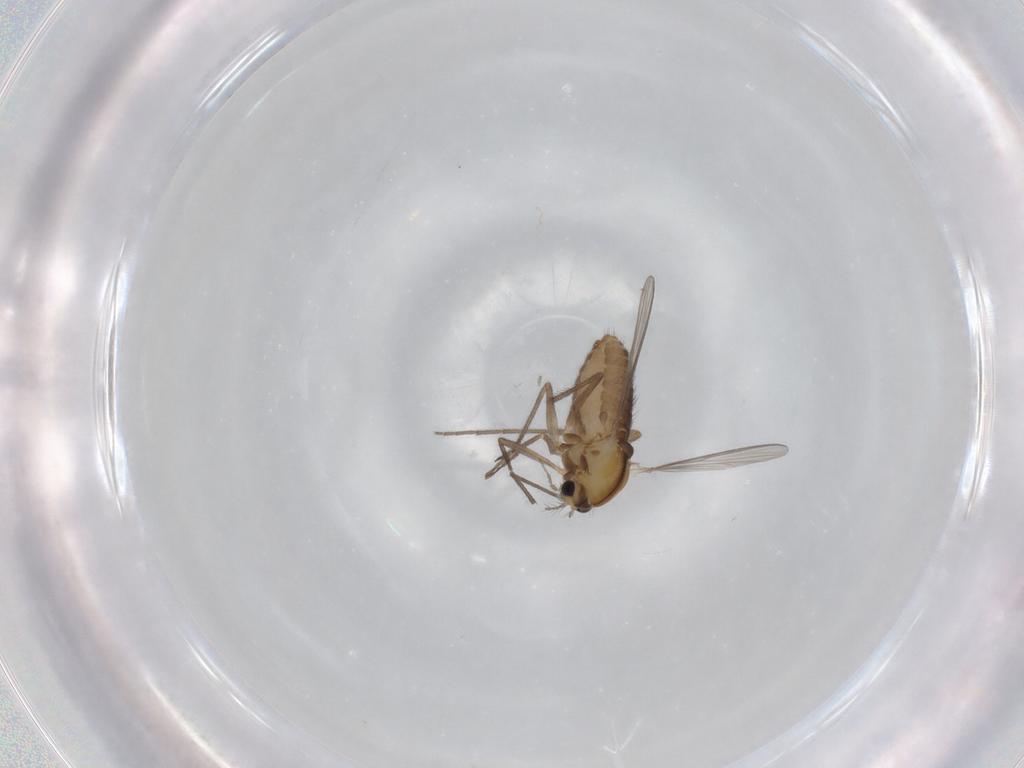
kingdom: Animalia
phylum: Arthropoda
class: Insecta
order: Diptera
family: Chironomidae
